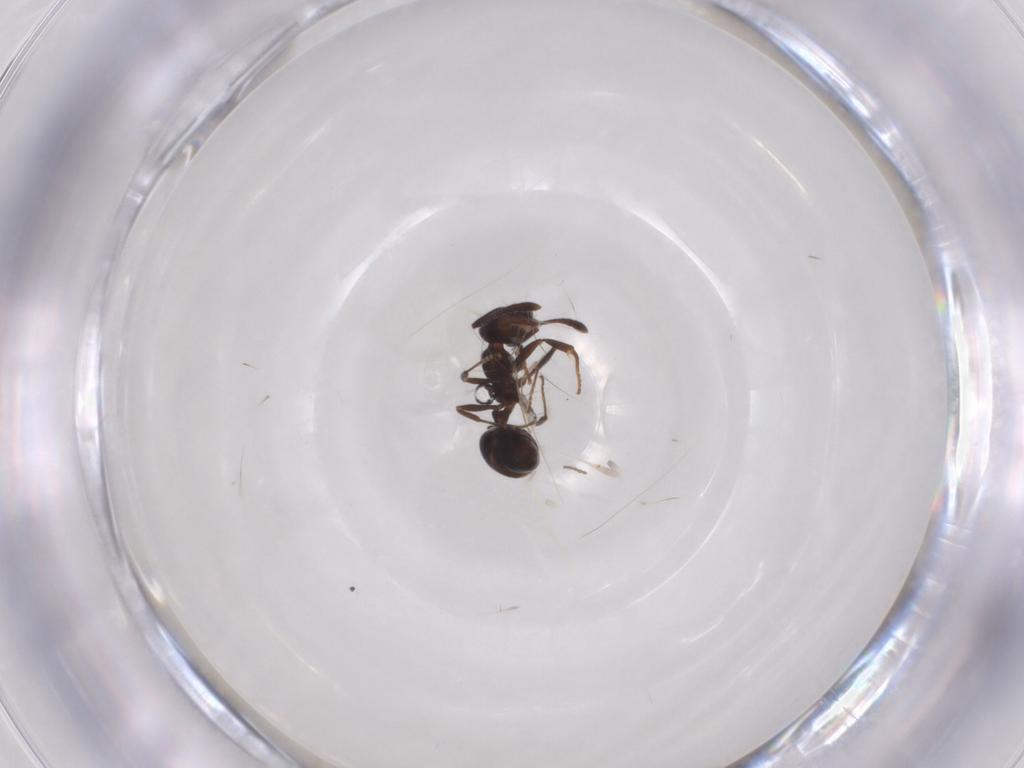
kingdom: Animalia
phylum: Arthropoda
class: Insecta
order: Hymenoptera
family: Formicidae
